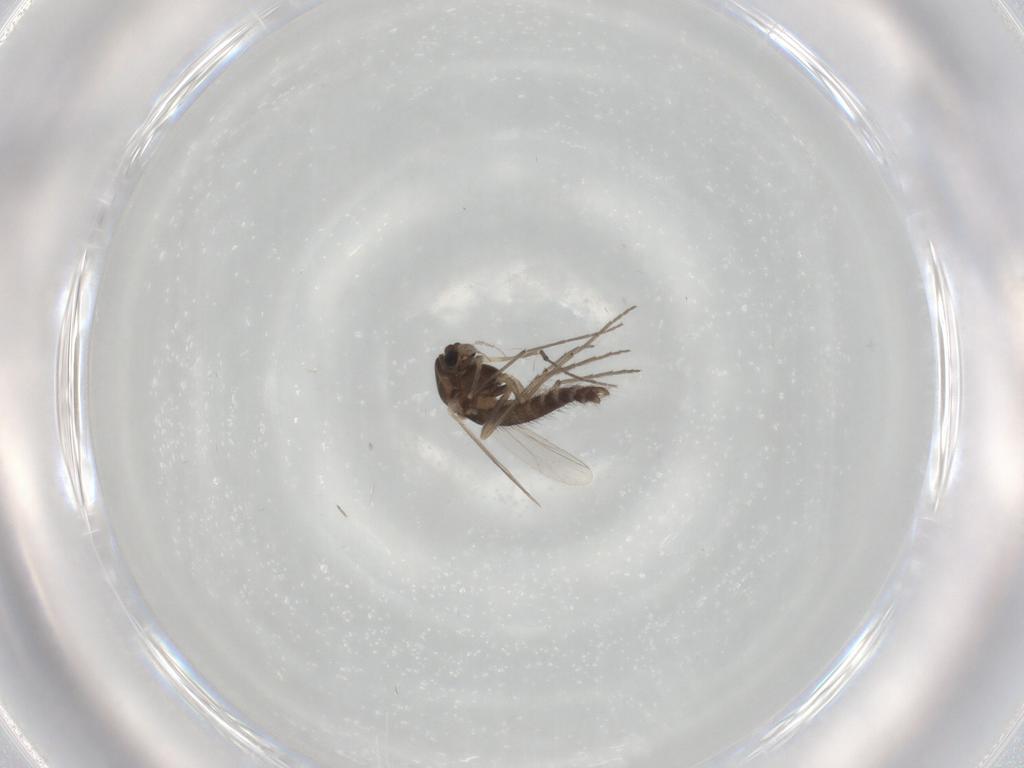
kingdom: Animalia
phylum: Arthropoda
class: Insecta
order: Diptera
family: Chironomidae
